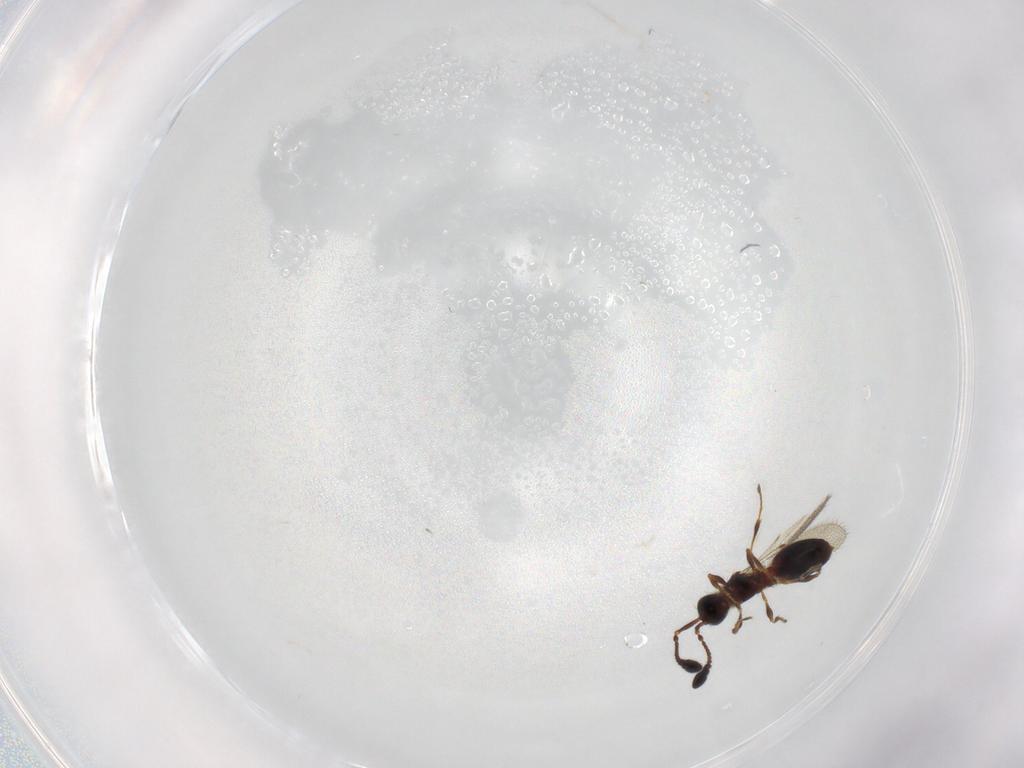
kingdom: Animalia
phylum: Arthropoda
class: Insecta
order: Hymenoptera
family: Diapriidae
